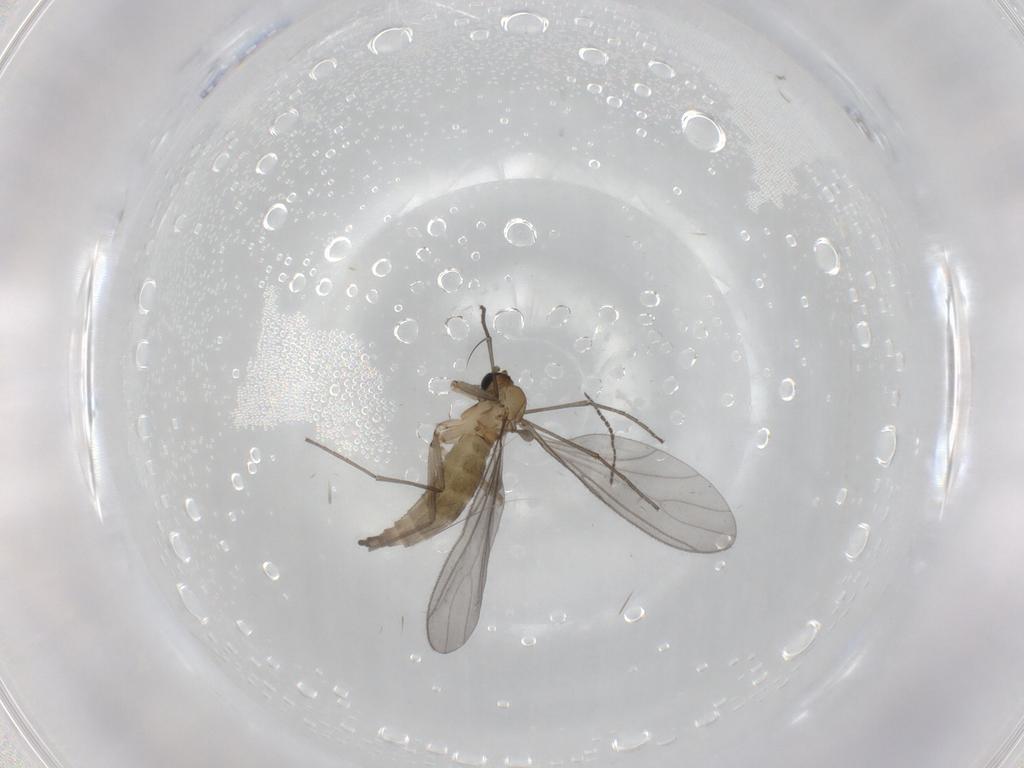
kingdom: Animalia
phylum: Arthropoda
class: Insecta
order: Diptera
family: Sciaridae
